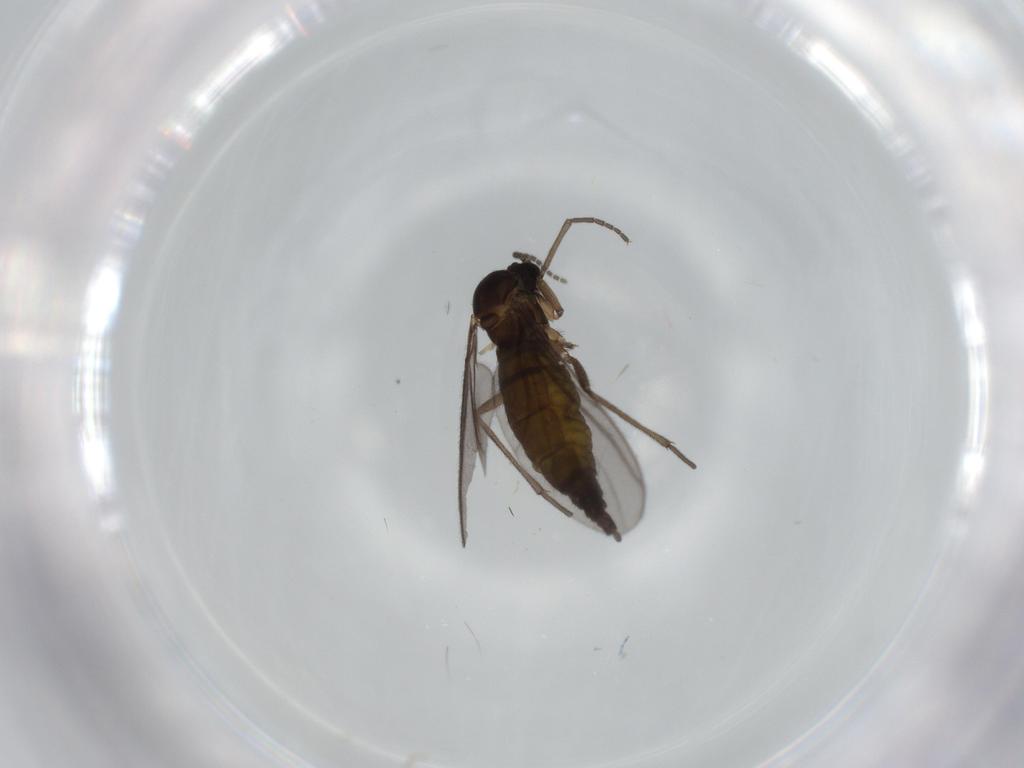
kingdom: Animalia
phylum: Arthropoda
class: Insecta
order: Diptera
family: Sciaridae
